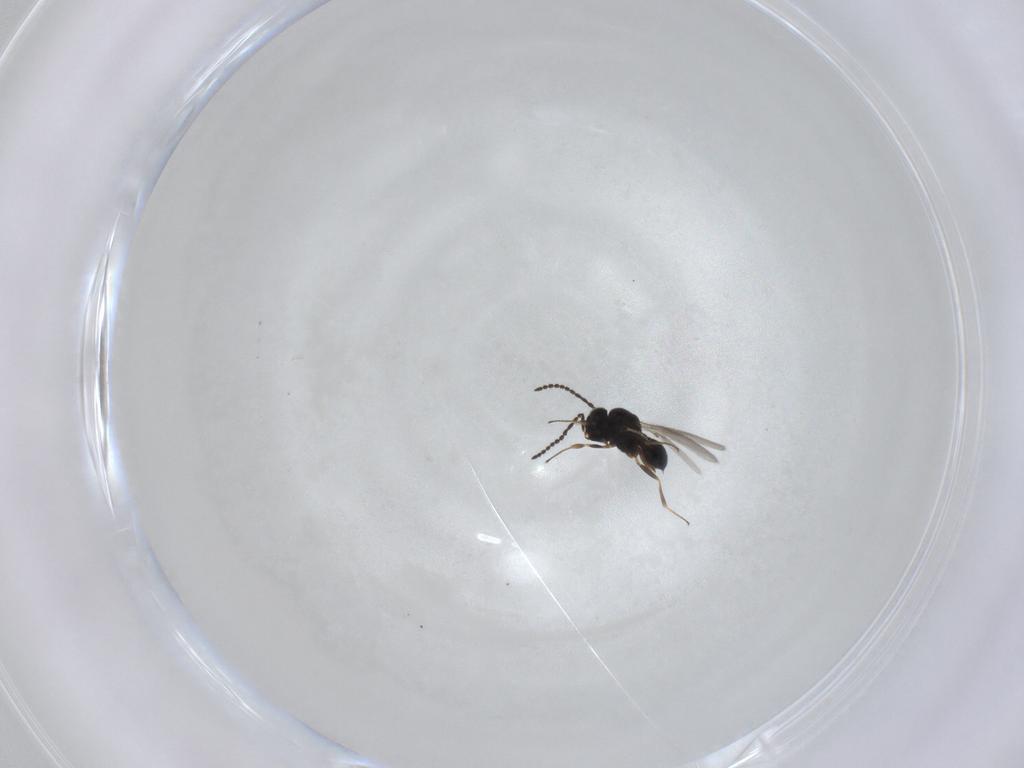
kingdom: Animalia
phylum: Arthropoda
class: Insecta
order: Hymenoptera
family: Scelionidae
